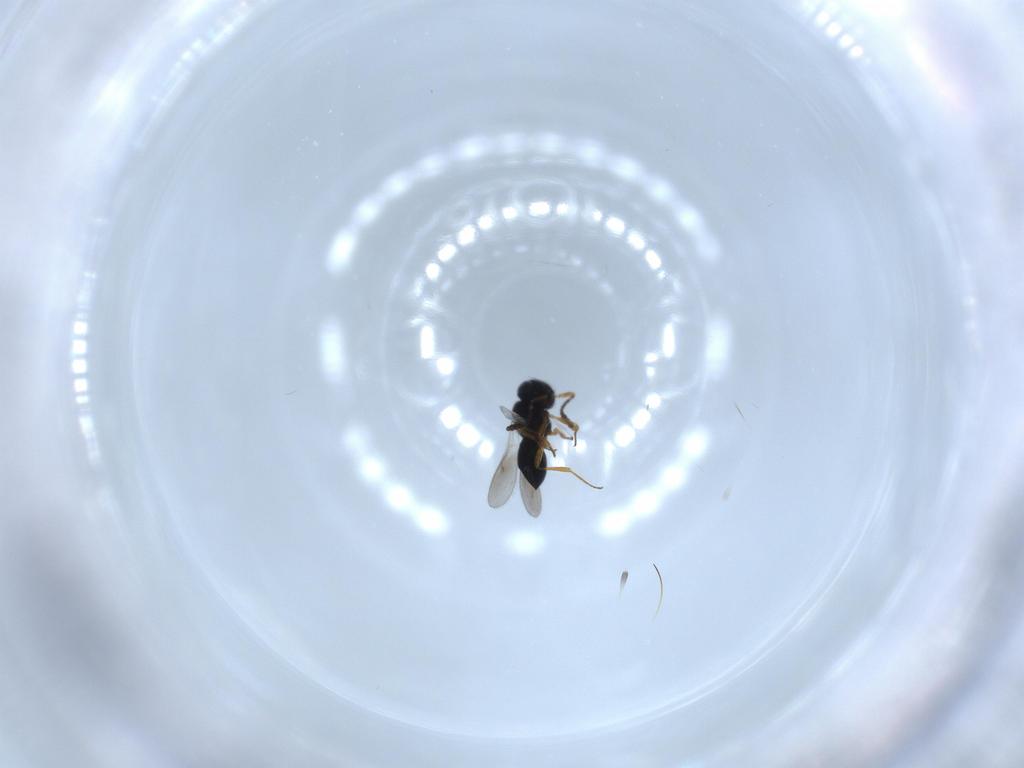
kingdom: Animalia
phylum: Arthropoda
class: Insecta
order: Hymenoptera
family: Scelionidae
